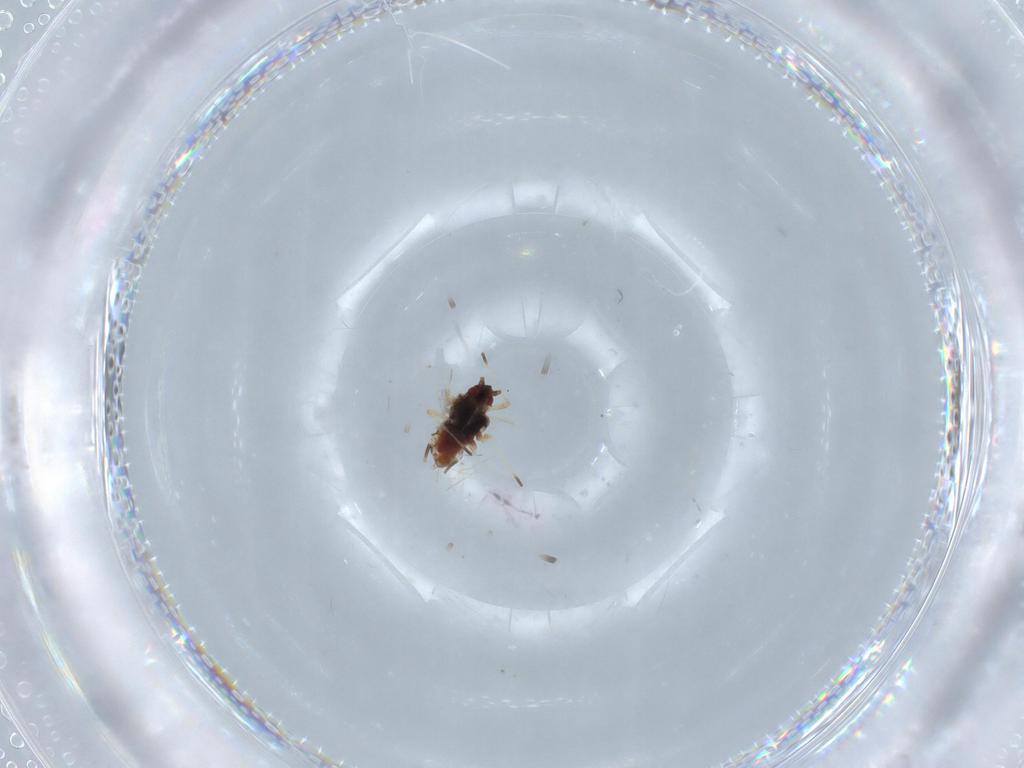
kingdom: Animalia
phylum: Arthropoda
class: Insecta
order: Hemiptera
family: Aphididae
